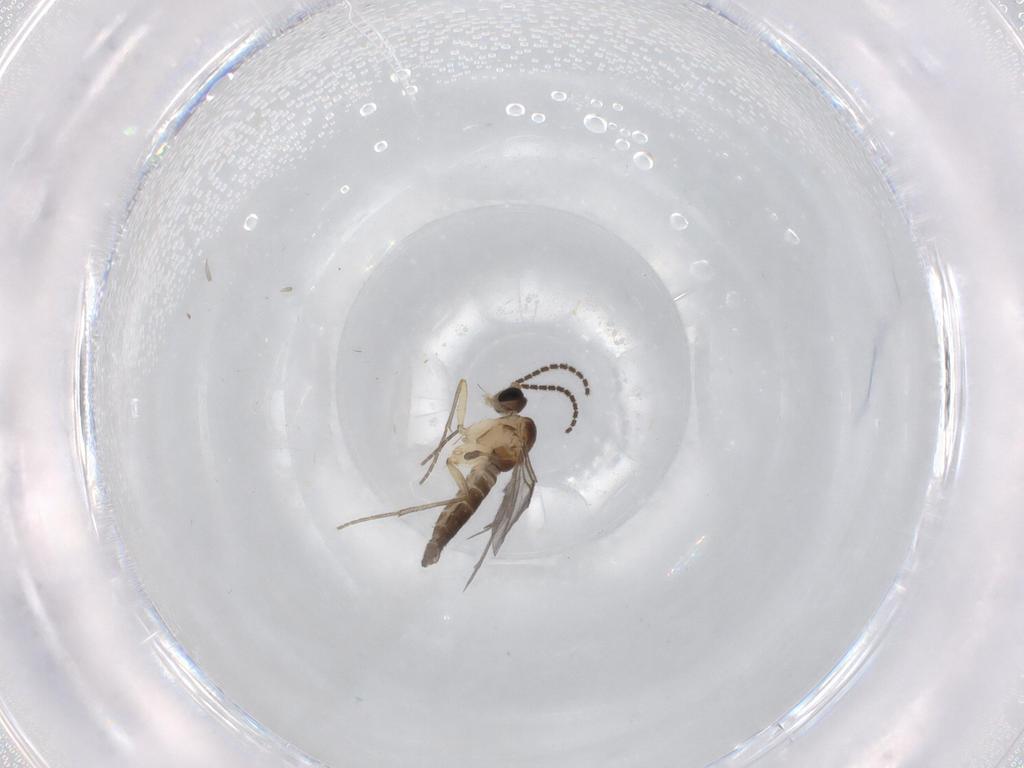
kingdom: Animalia
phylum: Arthropoda
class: Insecta
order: Diptera
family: Sciaridae
